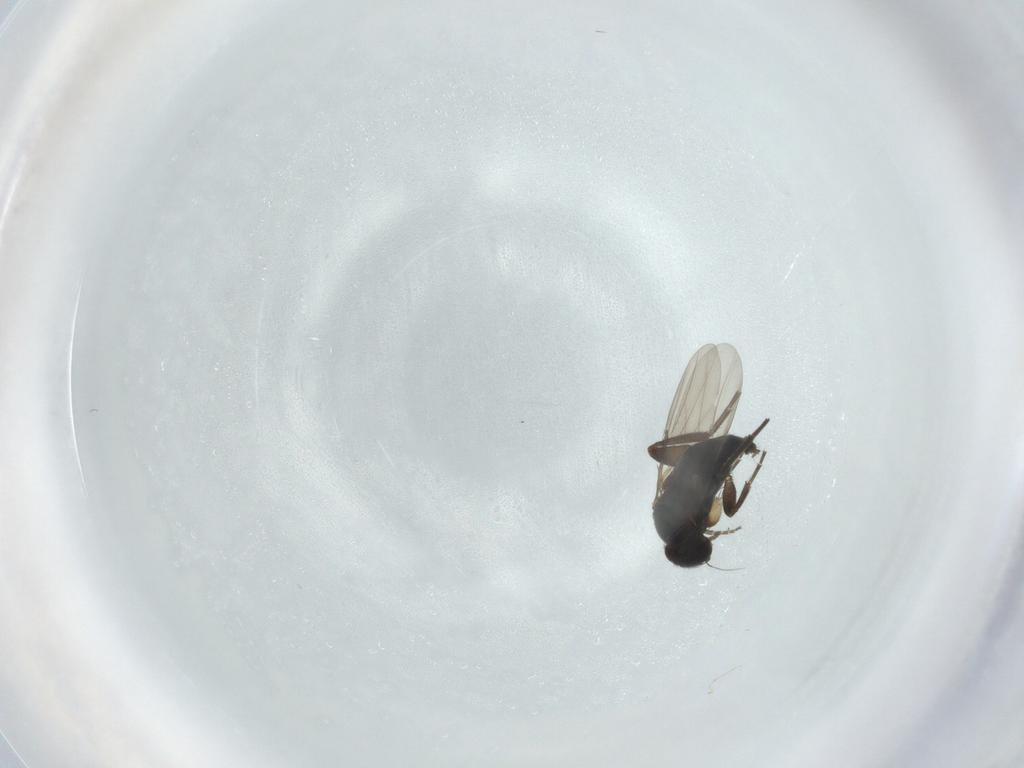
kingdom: Animalia
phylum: Arthropoda
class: Insecta
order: Diptera
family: Phoridae
